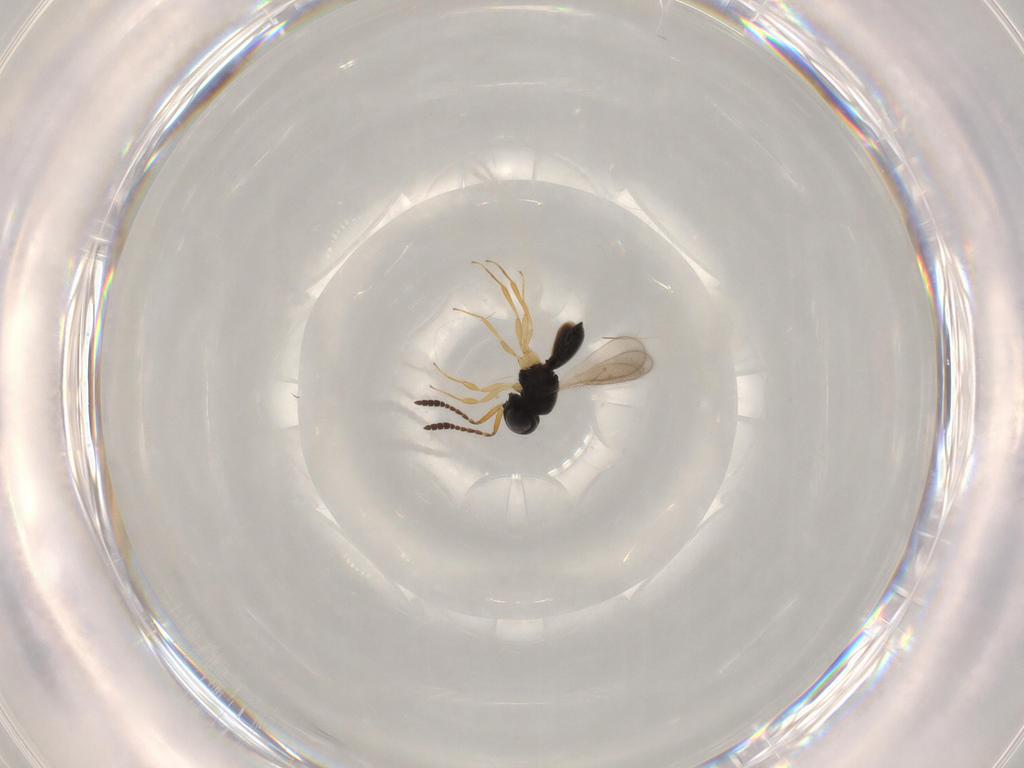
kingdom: Animalia
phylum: Arthropoda
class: Insecta
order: Hymenoptera
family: Scelionidae
